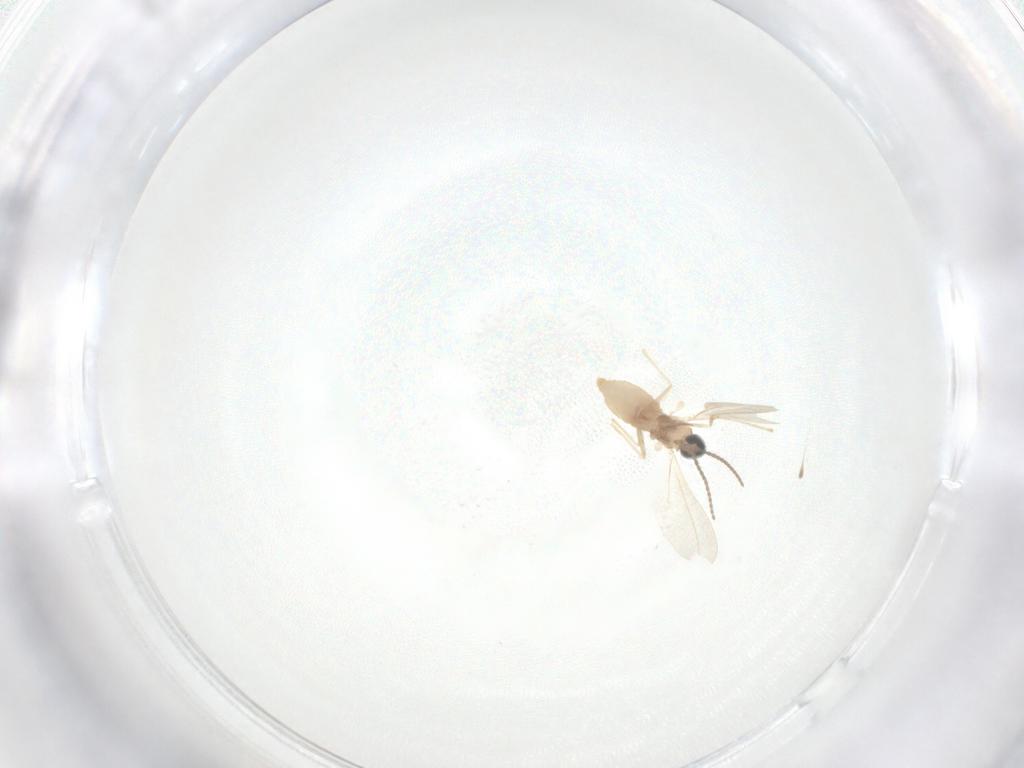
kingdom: Animalia
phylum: Arthropoda
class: Insecta
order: Diptera
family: Cecidomyiidae
